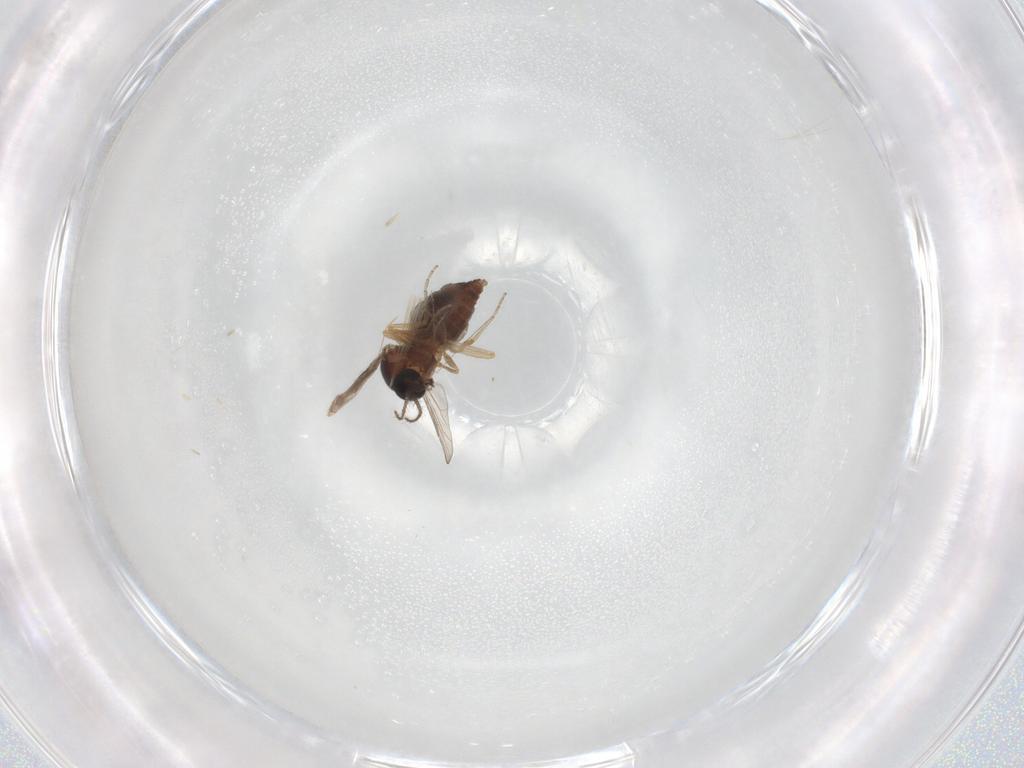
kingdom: Animalia
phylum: Arthropoda
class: Insecta
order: Diptera
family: Ceratopogonidae
